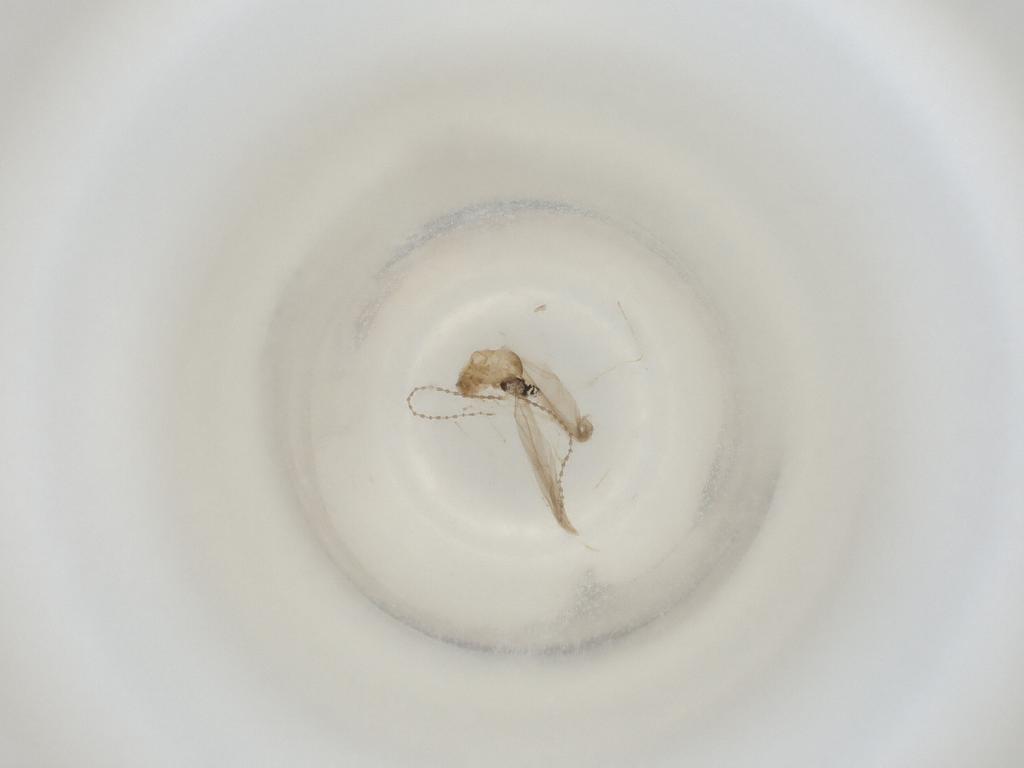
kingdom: Animalia
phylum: Arthropoda
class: Insecta
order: Diptera
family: Cecidomyiidae
